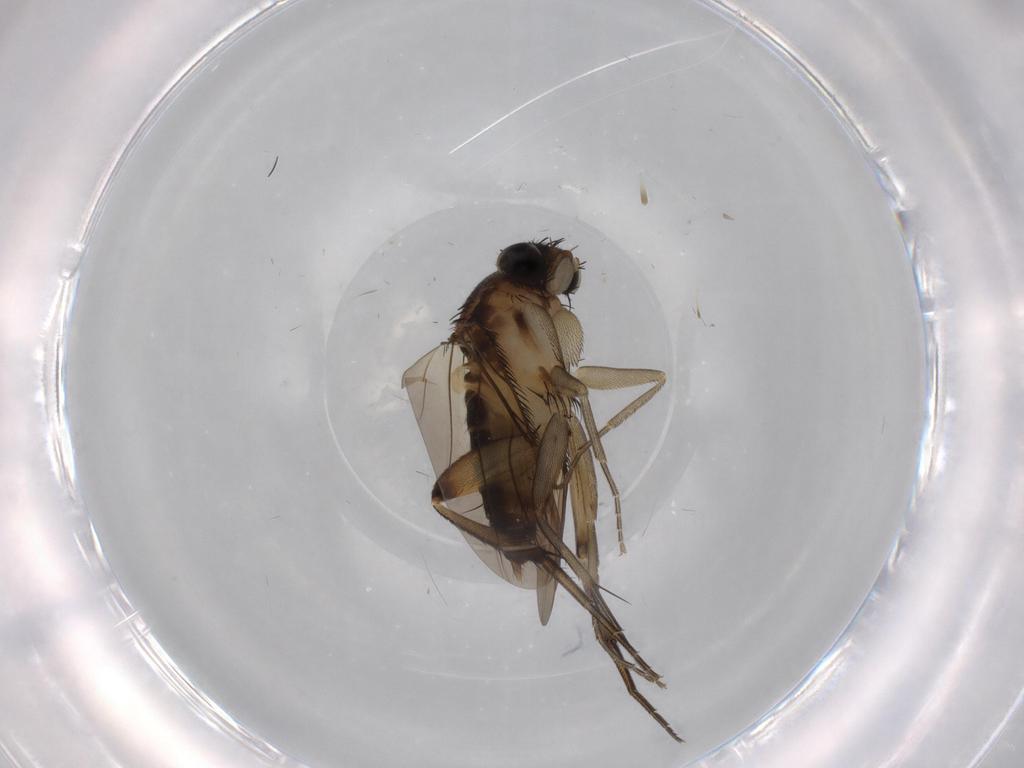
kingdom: Animalia
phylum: Arthropoda
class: Insecta
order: Diptera
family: Phoridae
